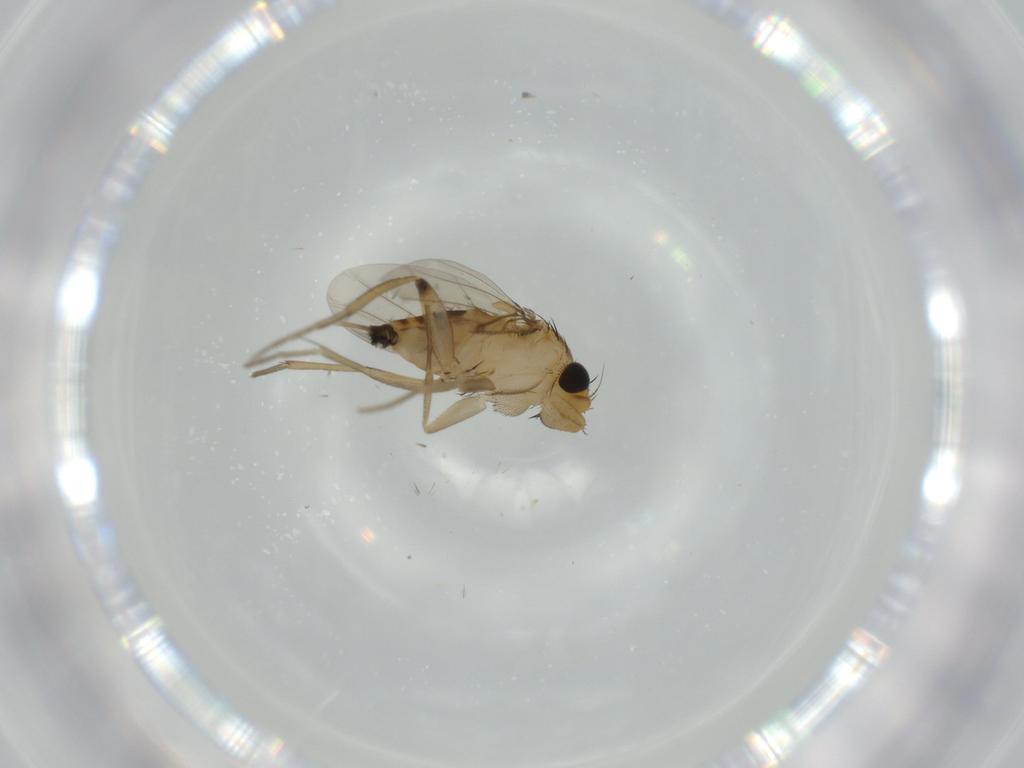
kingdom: Animalia
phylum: Arthropoda
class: Insecta
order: Diptera
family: Phoridae
